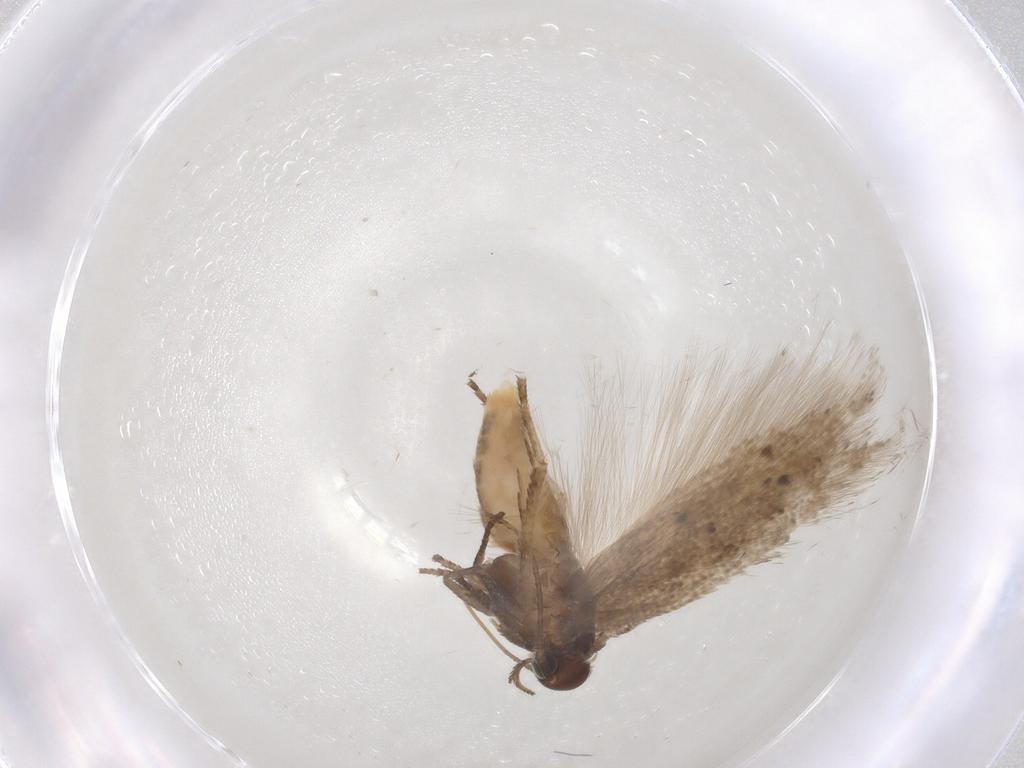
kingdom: Animalia
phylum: Arthropoda
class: Insecta
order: Lepidoptera
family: Gelechiidae
